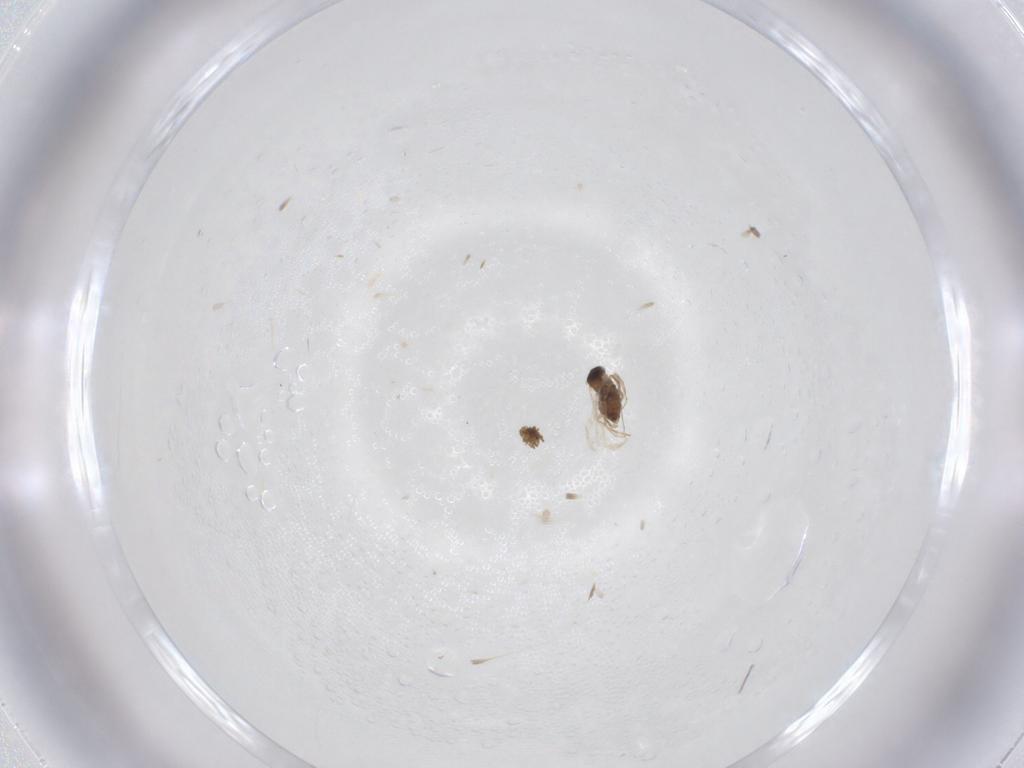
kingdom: Animalia
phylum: Arthropoda
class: Insecta
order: Diptera
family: Cecidomyiidae
